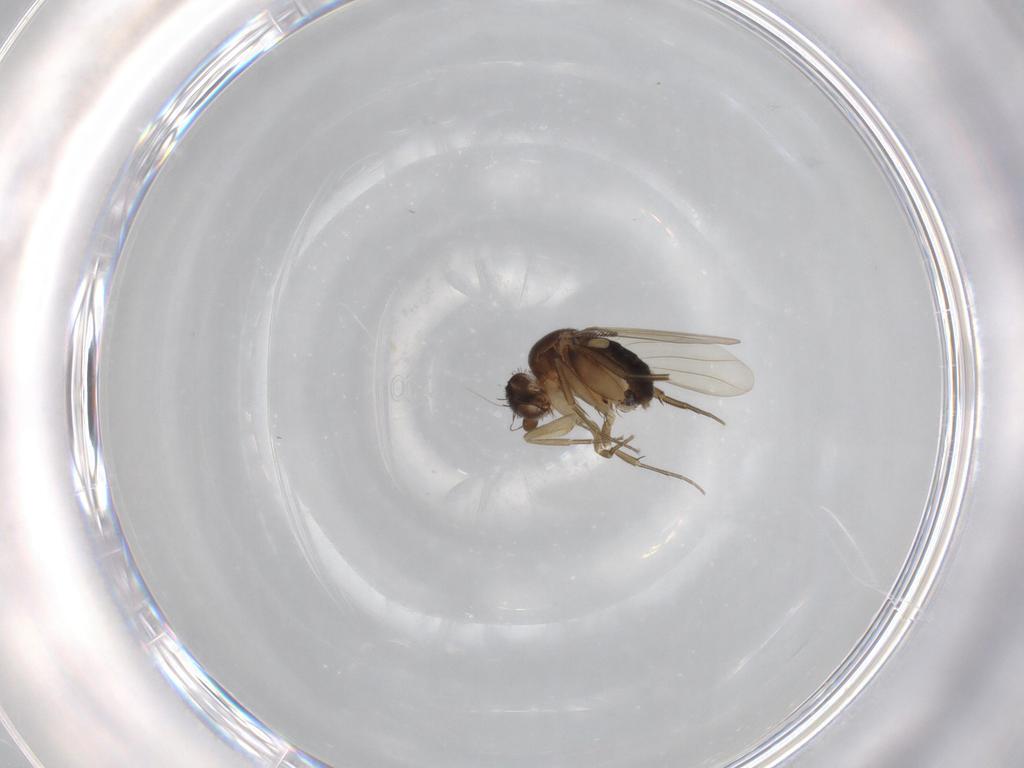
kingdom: Animalia
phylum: Arthropoda
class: Insecta
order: Diptera
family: Phoridae
